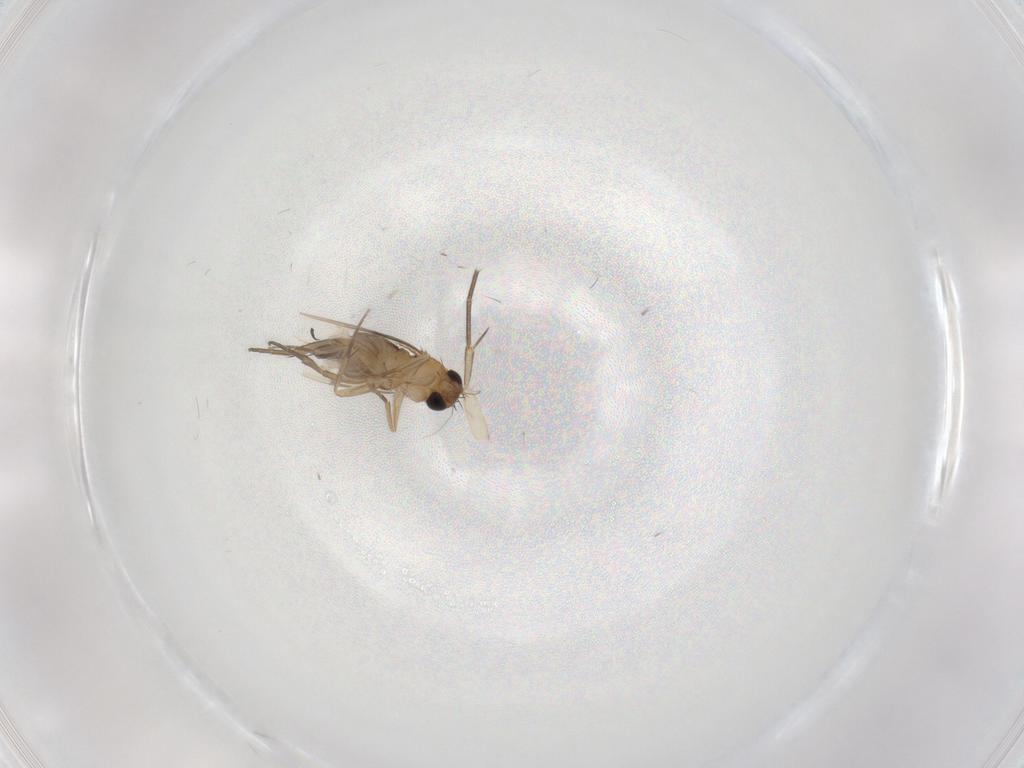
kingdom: Animalia
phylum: Arthropoda
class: Insecta
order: Diptera
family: Mycetophilidae
